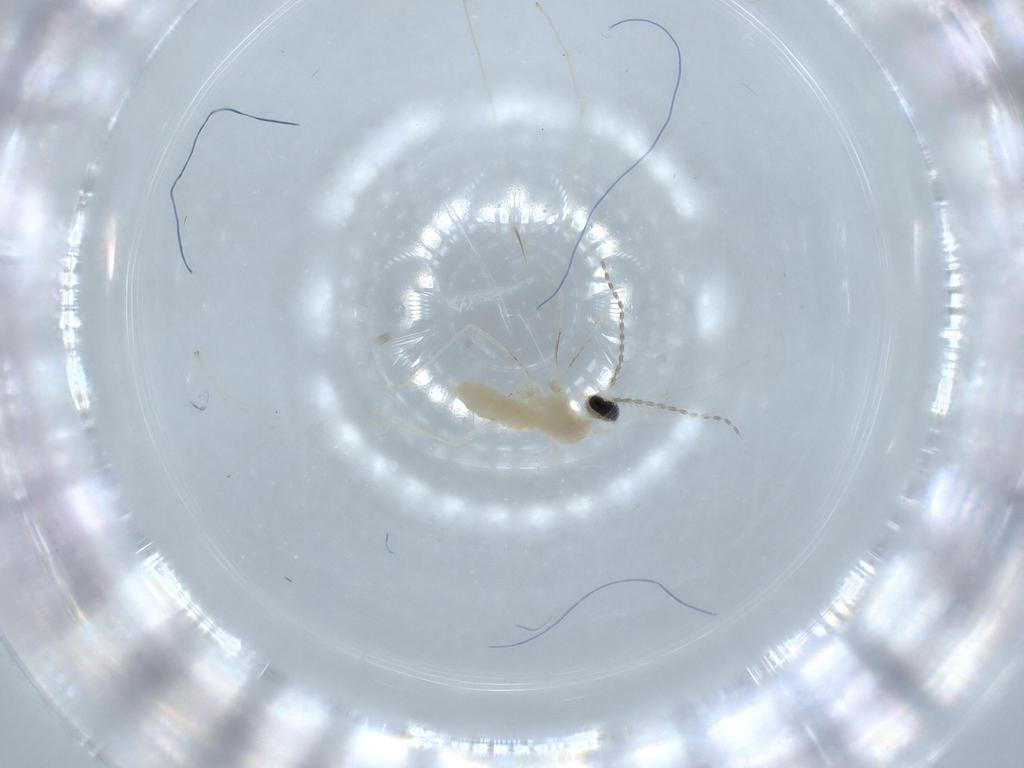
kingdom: Animalia
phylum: Arthropoda
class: Insecta
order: Diptera
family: Cecidomyiidae
